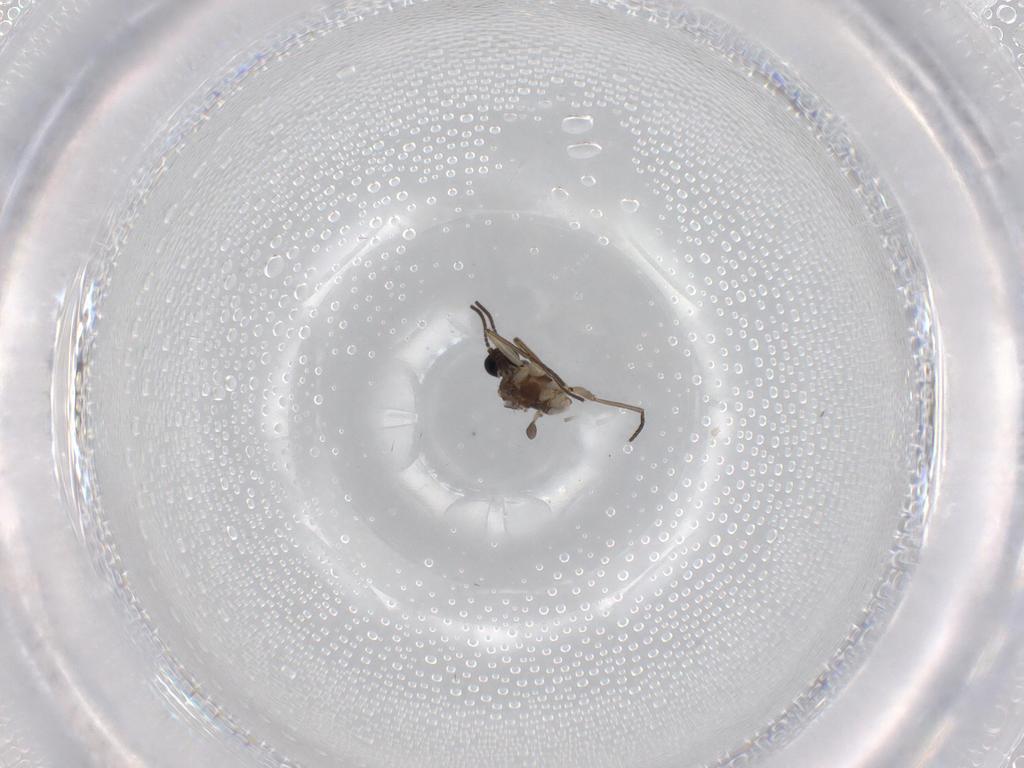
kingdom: Animalia
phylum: Arthropoda
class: Insecta
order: Diptera
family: Sciaridae
